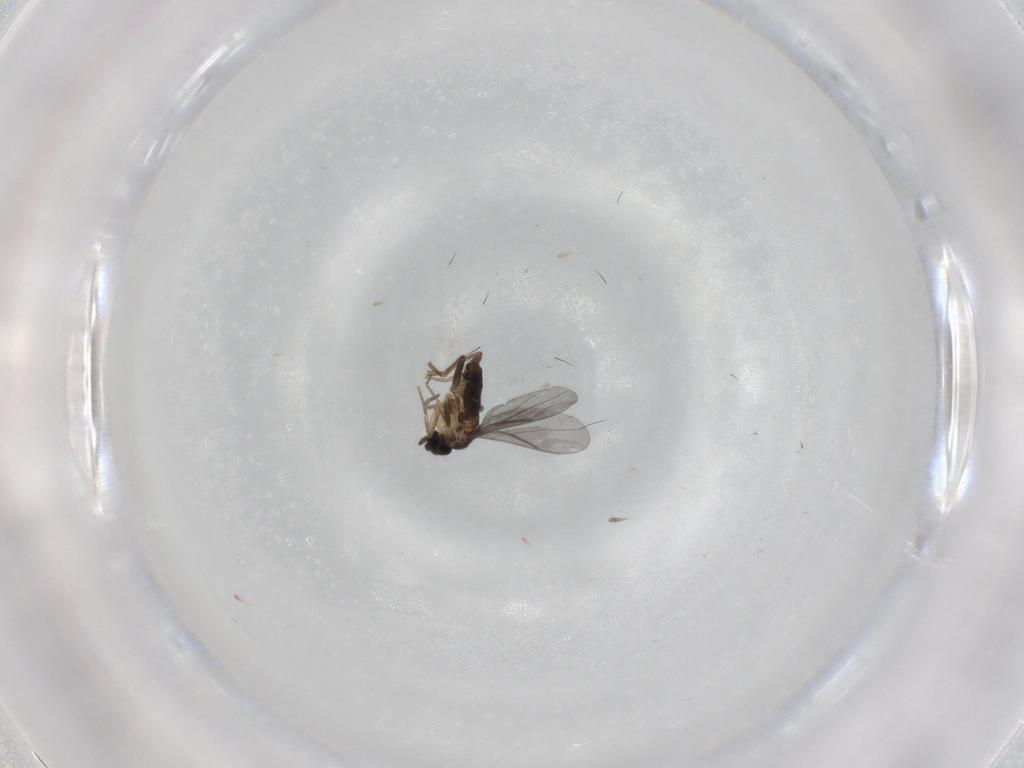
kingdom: Animalia
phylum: Arthropoda
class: Insecta
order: Diptera
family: Phoridae
